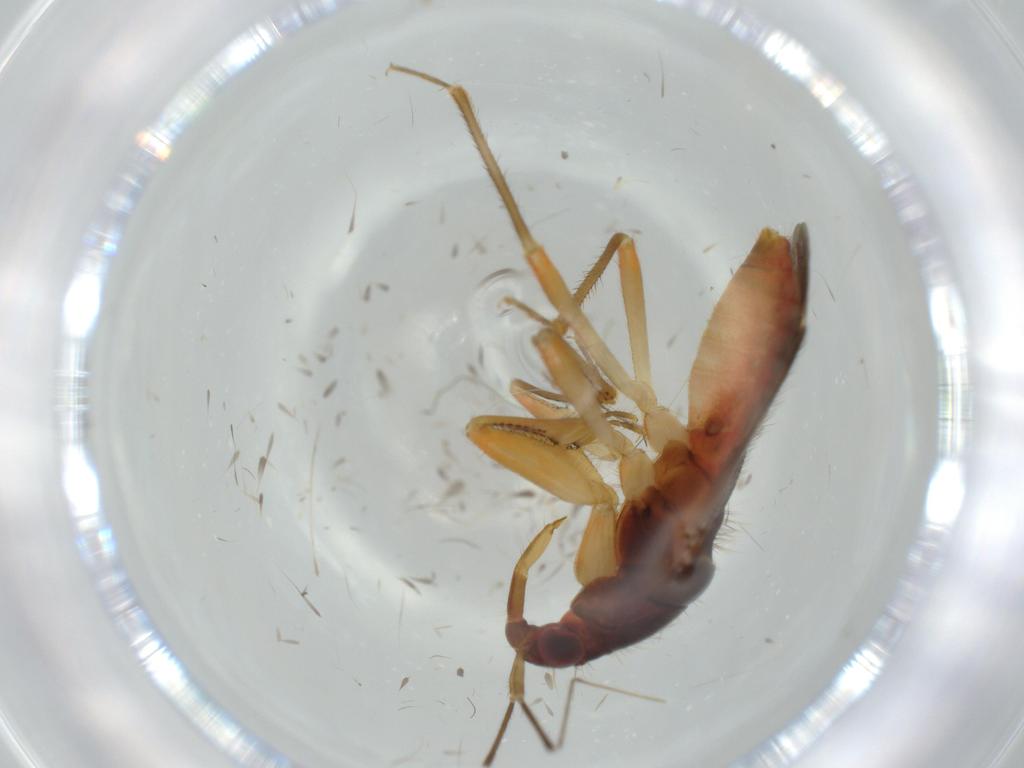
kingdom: Animalia
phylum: Arthropoda
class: Insecta
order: Hemiptera
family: Nabidae
